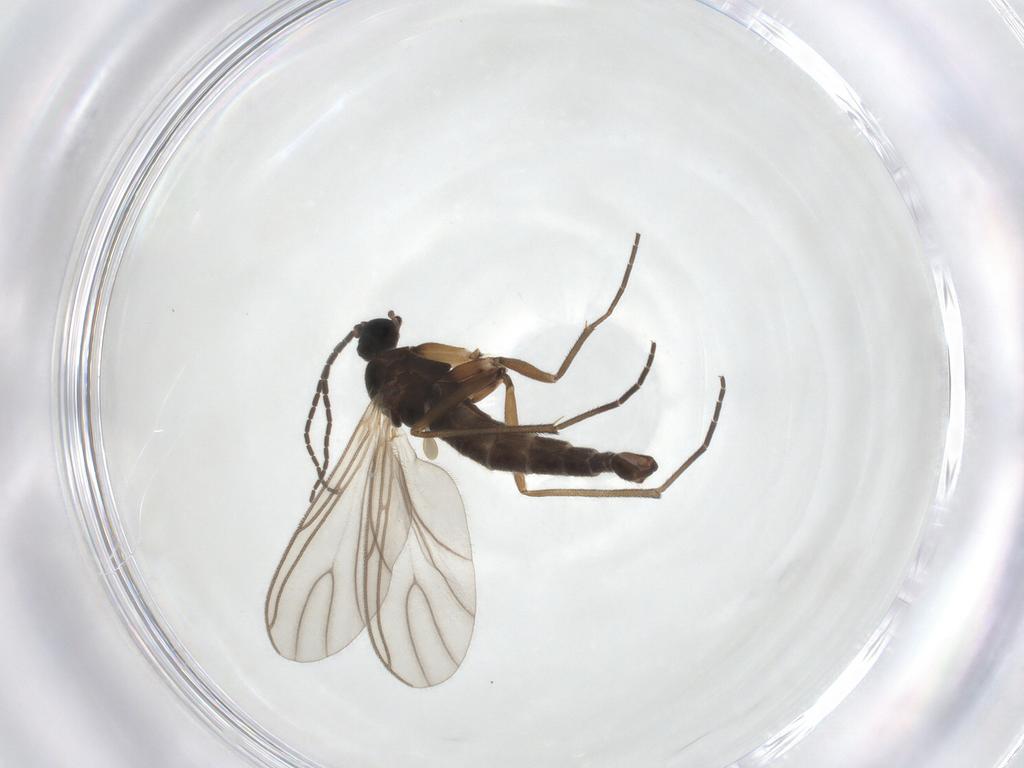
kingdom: Animalia
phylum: Arthropoda
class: Insecta
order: Diptera
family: Sciaridae
